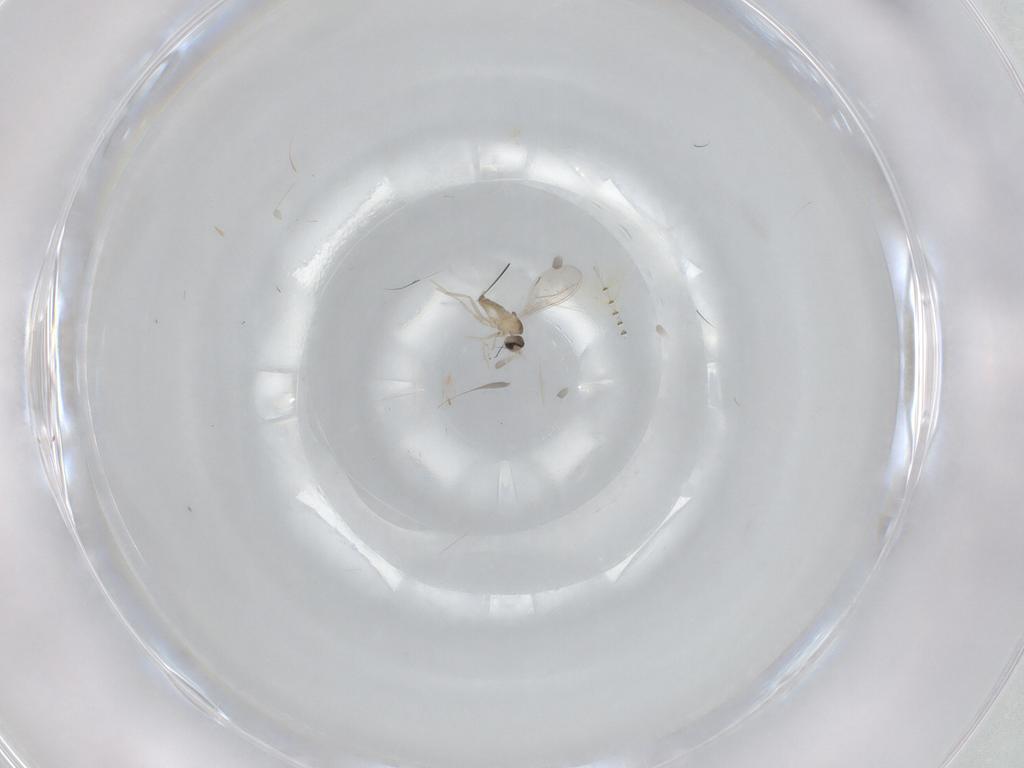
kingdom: Animalia
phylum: Arthropoda
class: Insecta
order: Diptera
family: Cecidomyiidae
